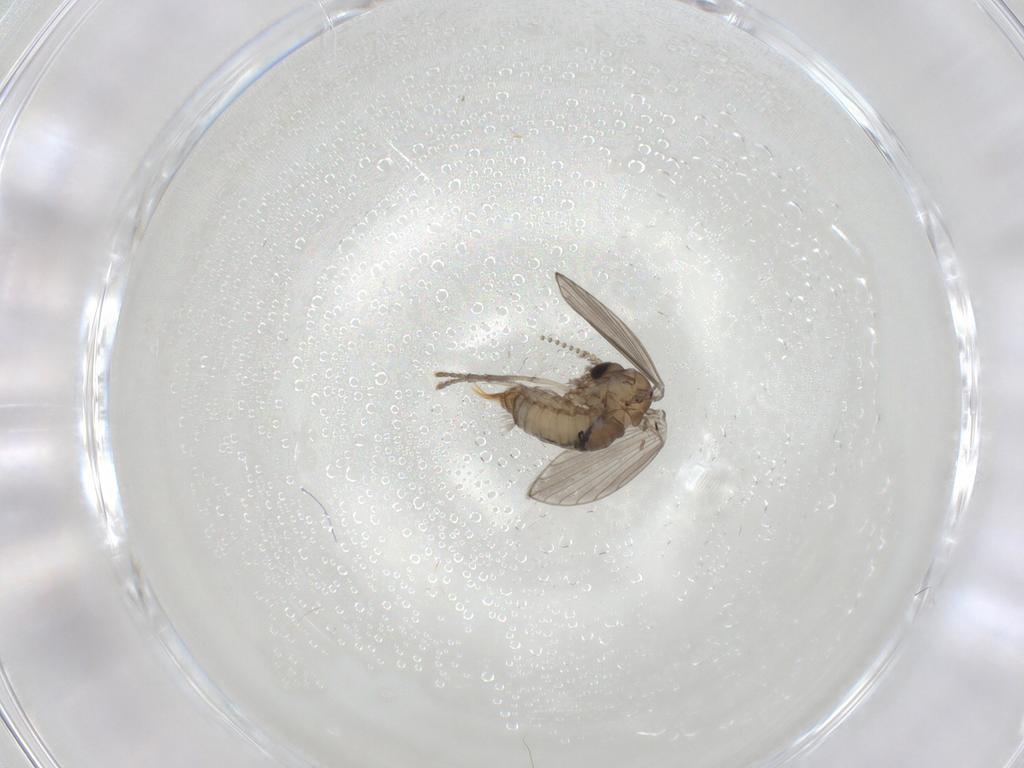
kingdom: Animalia
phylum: Arthropoda
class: Insecta
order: Diptera
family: Psychodidae
